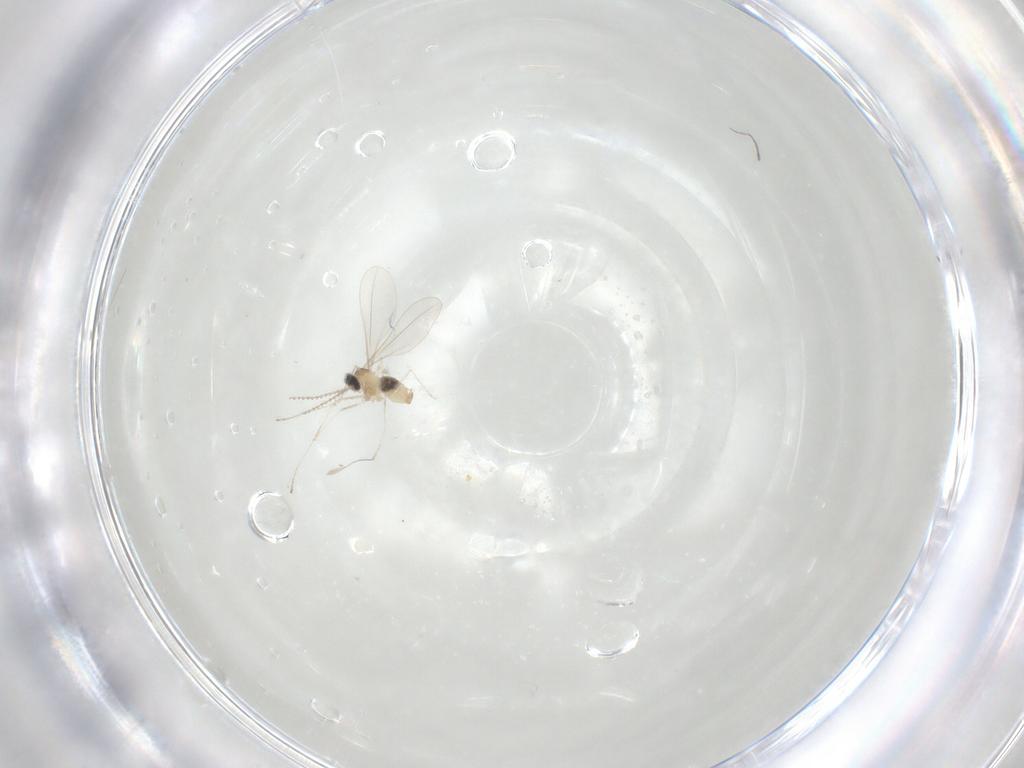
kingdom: Animalia
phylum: Arthropoda
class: Insecta
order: Diptera
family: Cecidomyiidae
